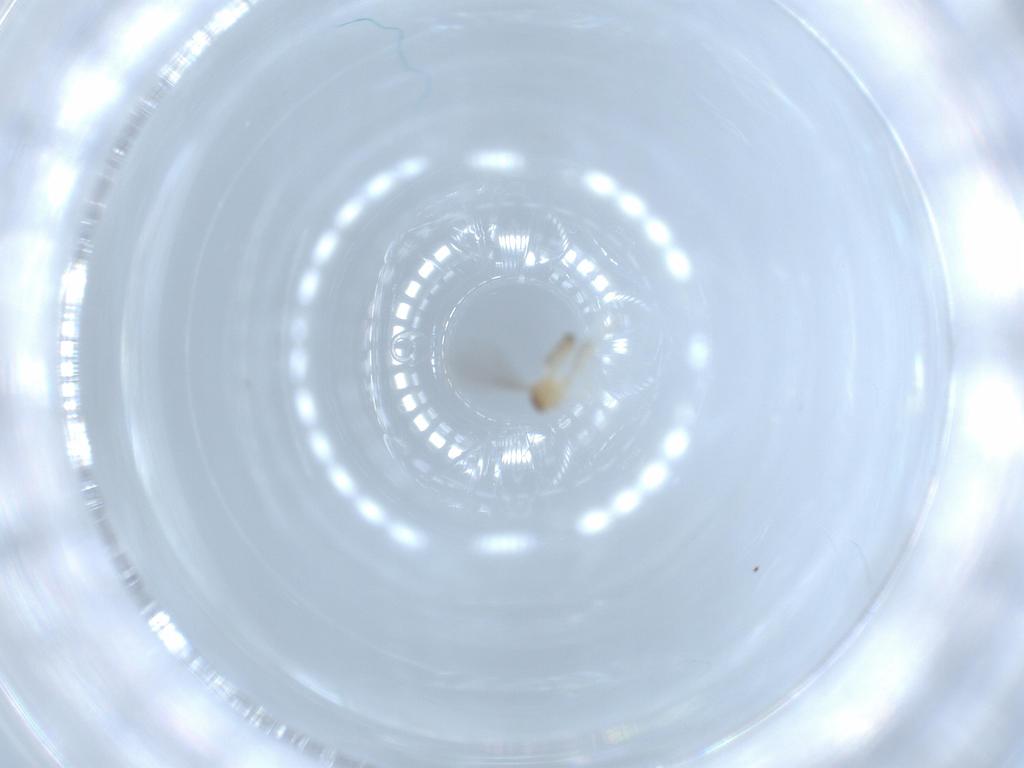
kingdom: Animalia
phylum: Arthropoda
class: Insecta
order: Diptera
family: Cecidomyiidae
